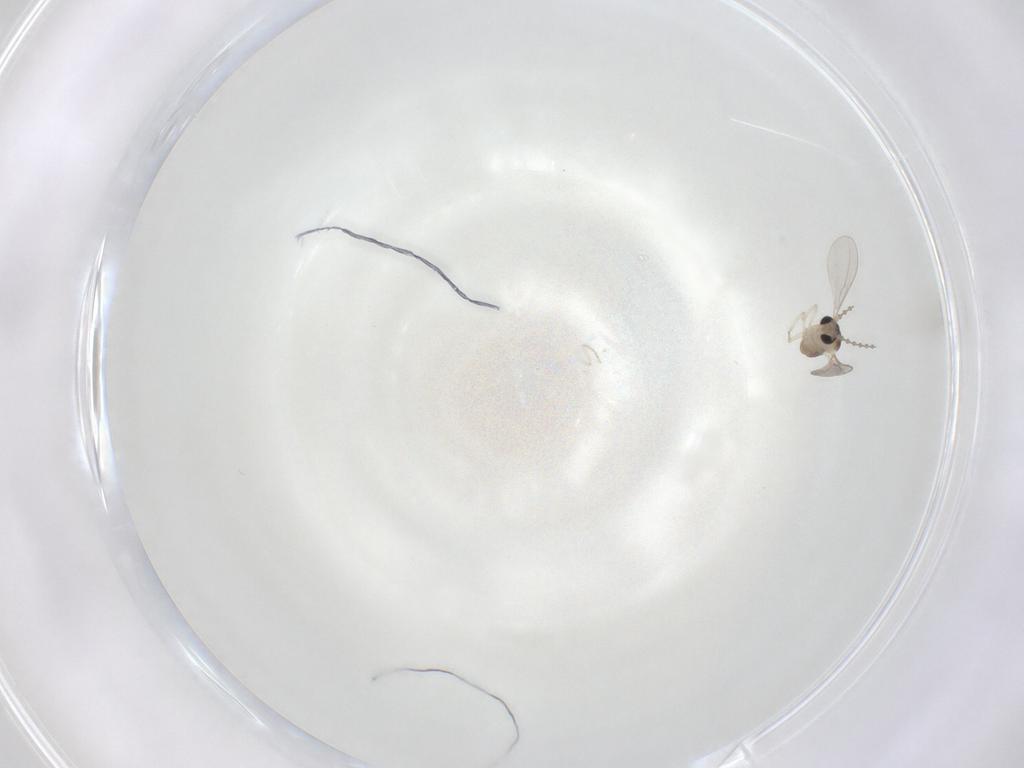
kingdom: Animalia
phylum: Arthropoda
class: Insecta
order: Diptera
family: Cecidomyiidae
